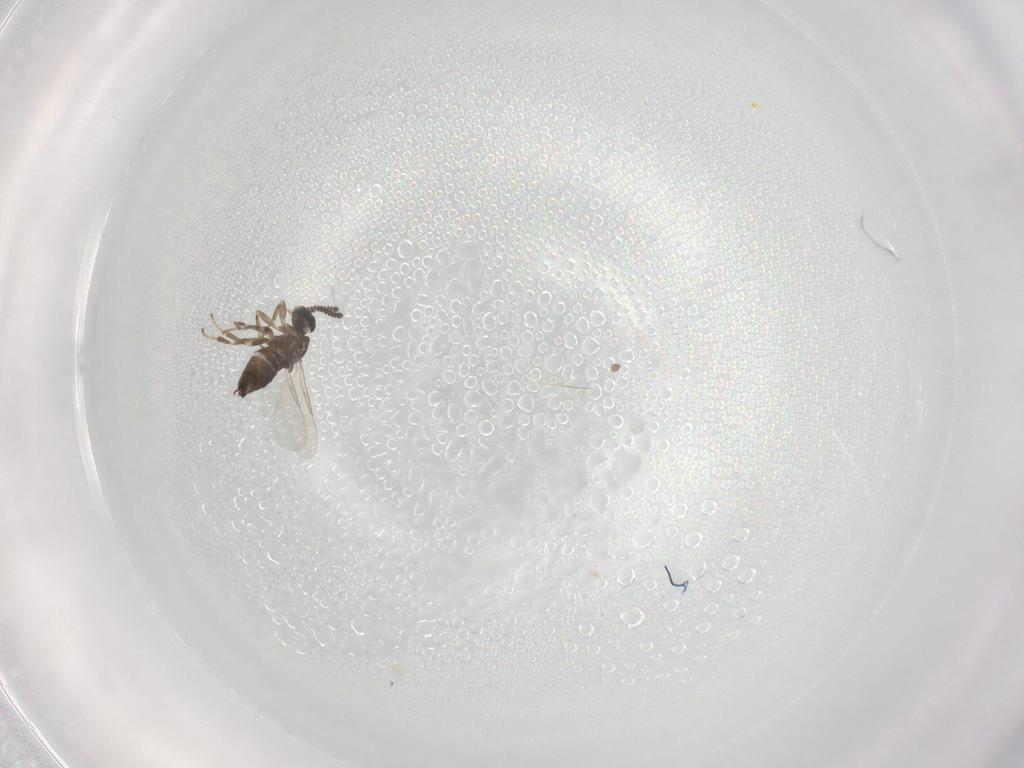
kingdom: Animalia
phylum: Arthropoda
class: Insecta
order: Diptera
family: Scatopsidae
